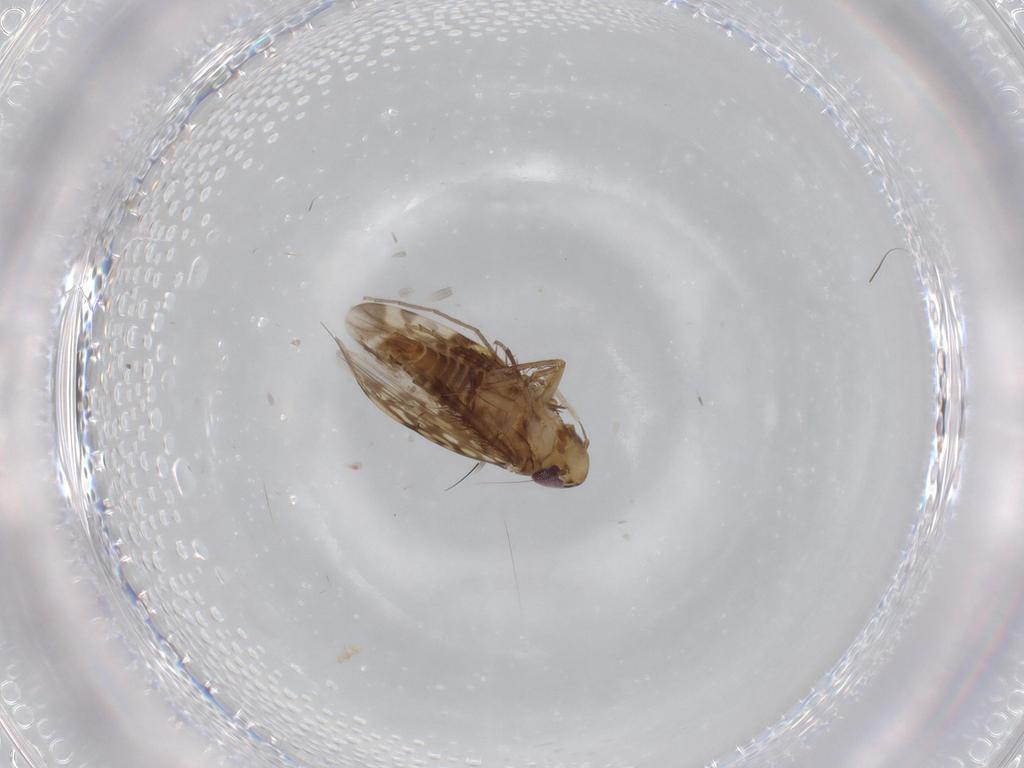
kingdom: Animalia
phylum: Arthropoda
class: Insecta
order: Hemiptera
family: Cicadellidae
